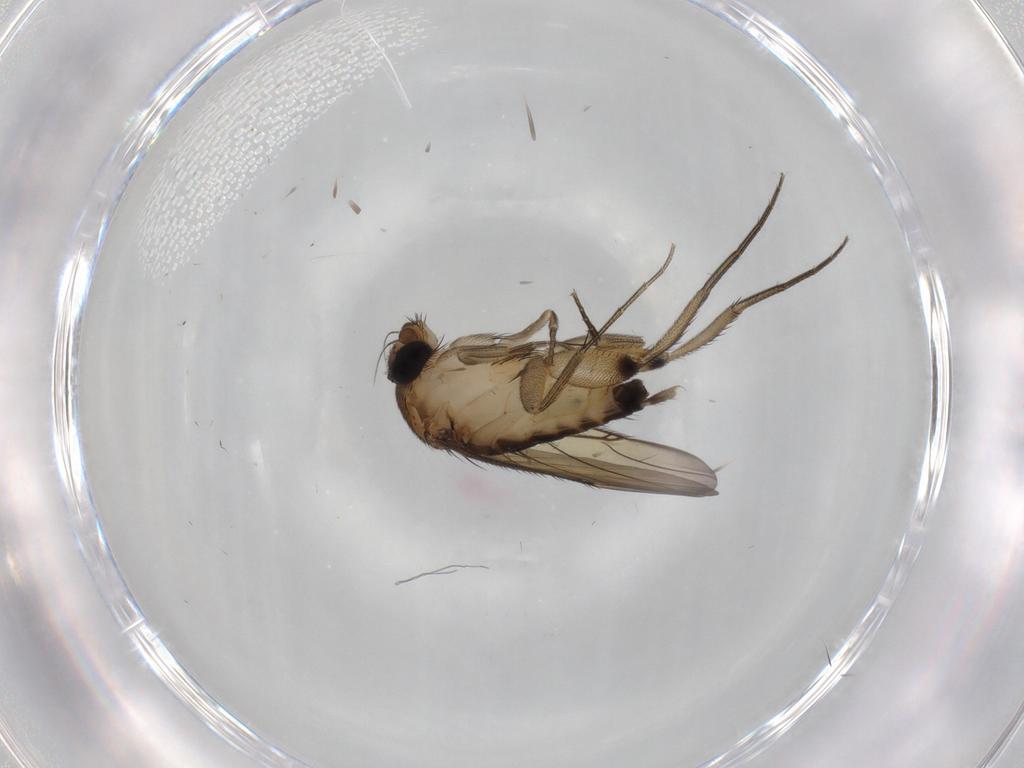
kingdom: Animalia
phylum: Arthropoda
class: Insecta
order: Diptera
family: Phoridae
